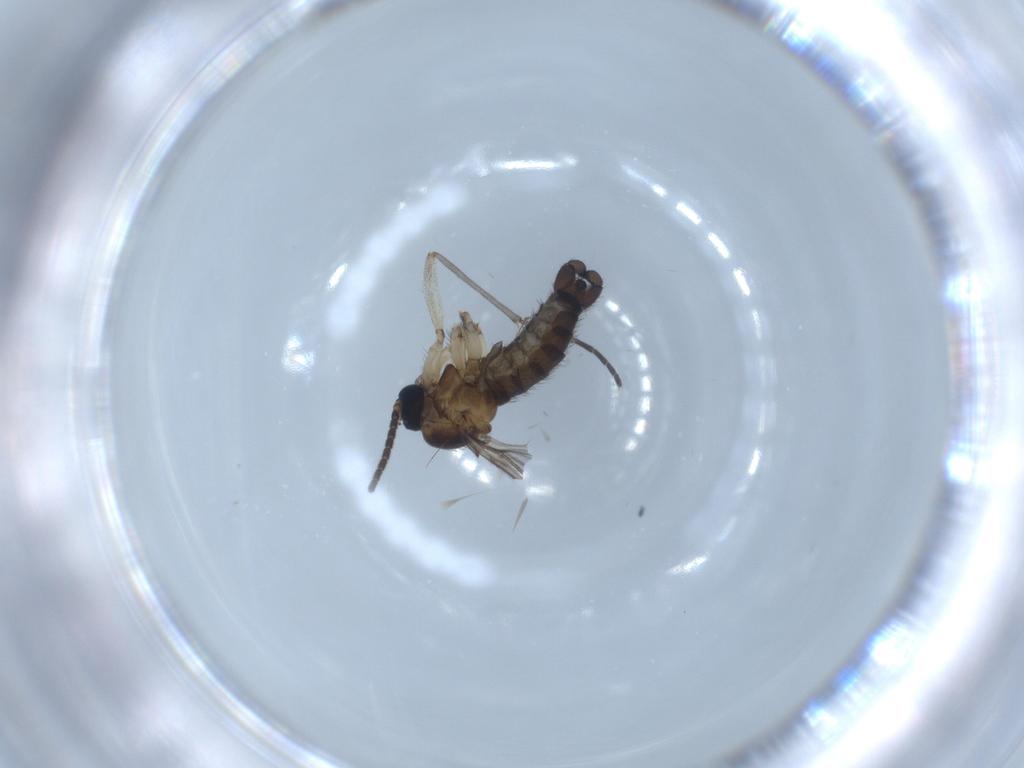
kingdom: Animalia
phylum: Arthropoda
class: Insecta
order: Diptera
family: Sciaridae
